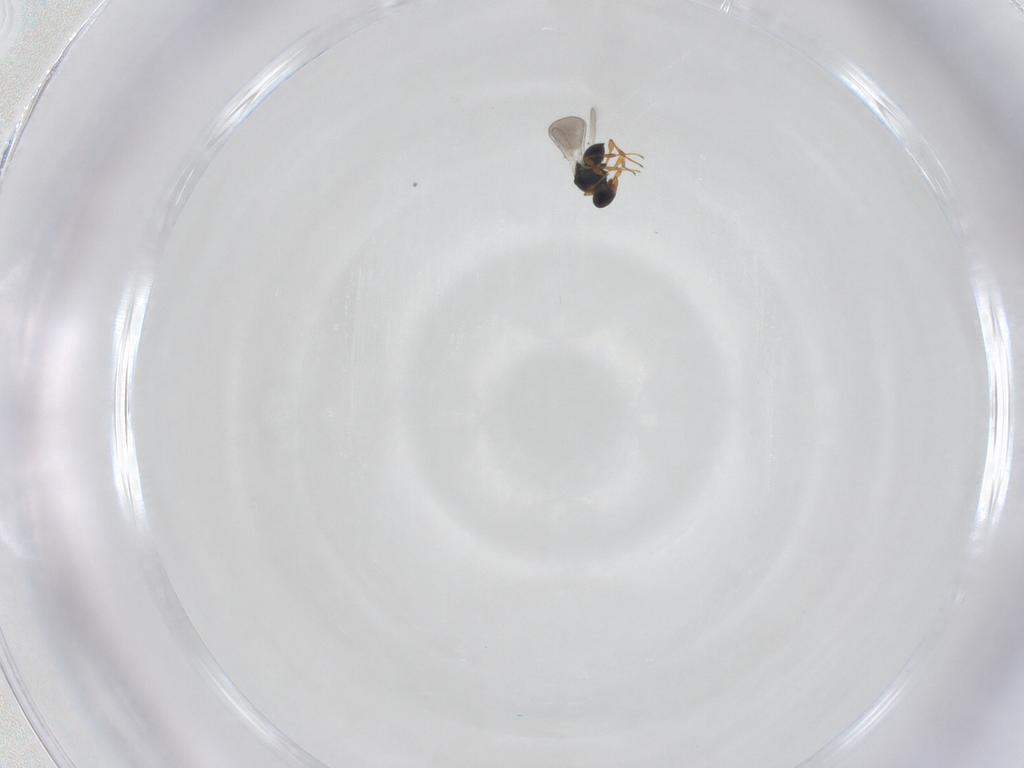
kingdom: Animalia
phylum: Arthropoda
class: Insecta
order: Hymenoptera
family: Platygastridae
